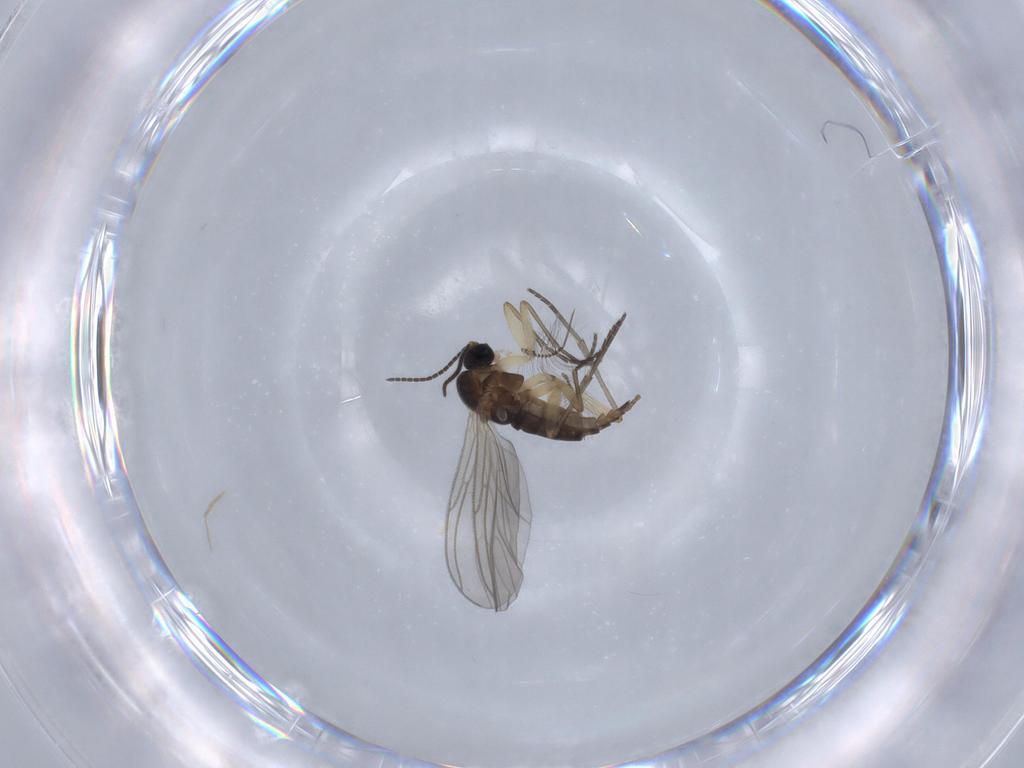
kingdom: Animalia
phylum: Arthropoda
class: Insecta
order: Diptera
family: Sciaridae
